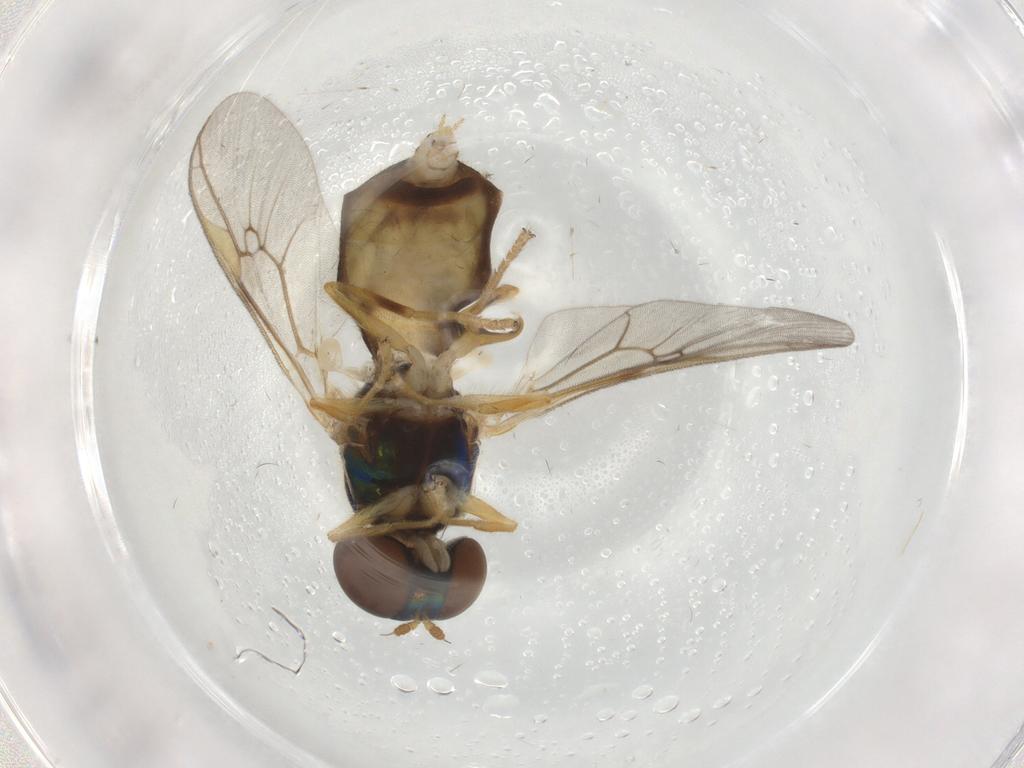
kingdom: Animalia
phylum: Arthropoda
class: Insecta
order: Diptera
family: Cecidomyiidae
